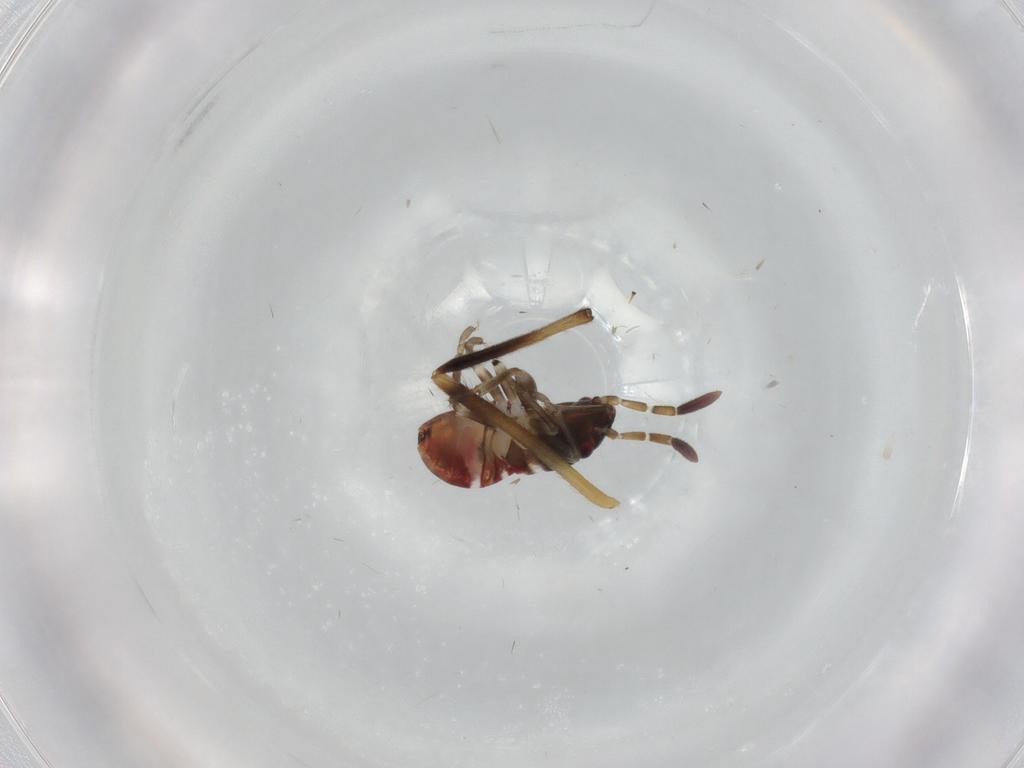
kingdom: Animalia
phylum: Arthropoda
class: Insecta
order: Hemiptera
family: Rhyparochromidae
